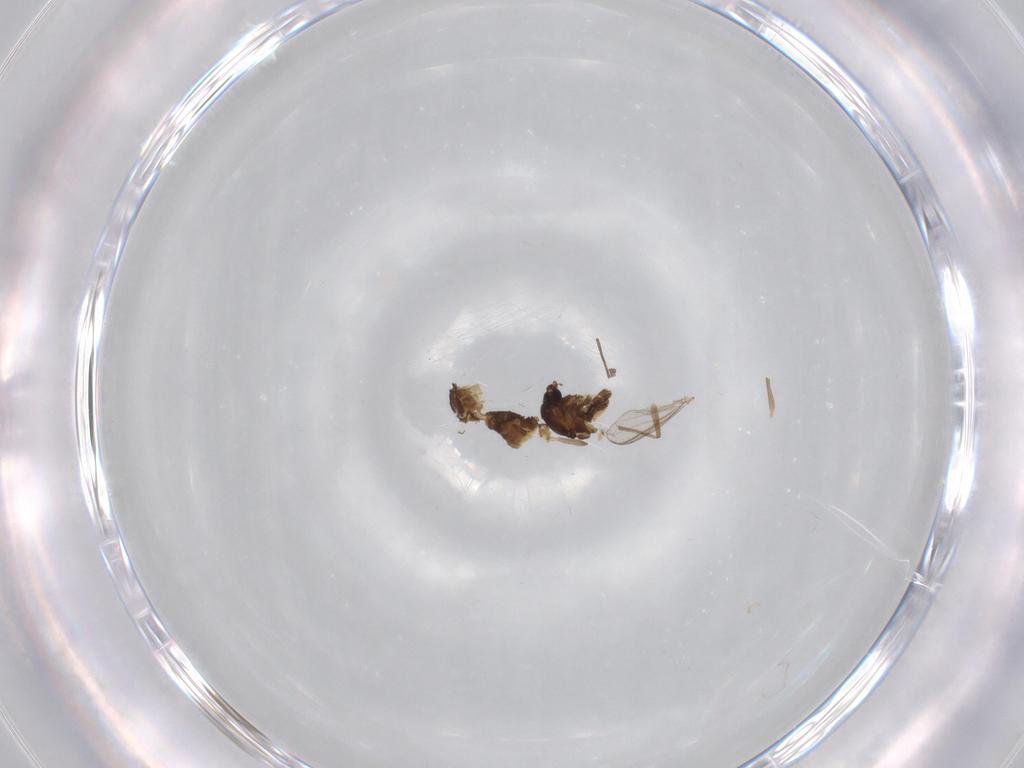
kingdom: Animalia
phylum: Arthropoda
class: Insecta
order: Diptera
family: Chironomidae
